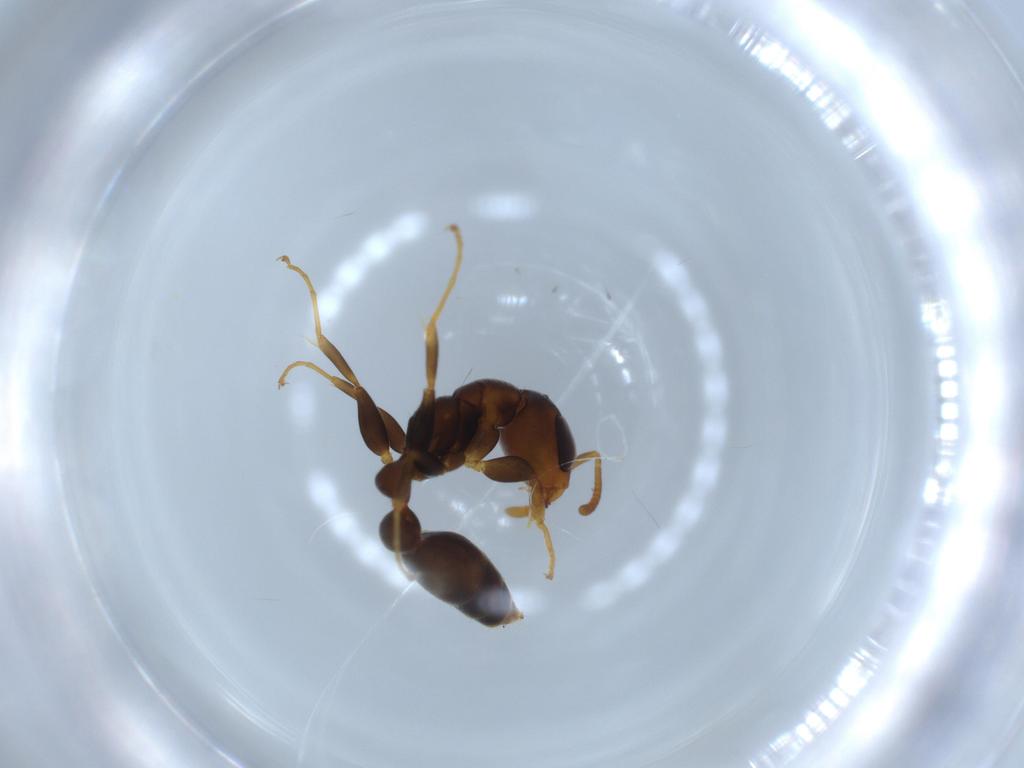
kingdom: Animalia
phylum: Arthropoda
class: Insecta
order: Hymenoptera
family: Formicidae
